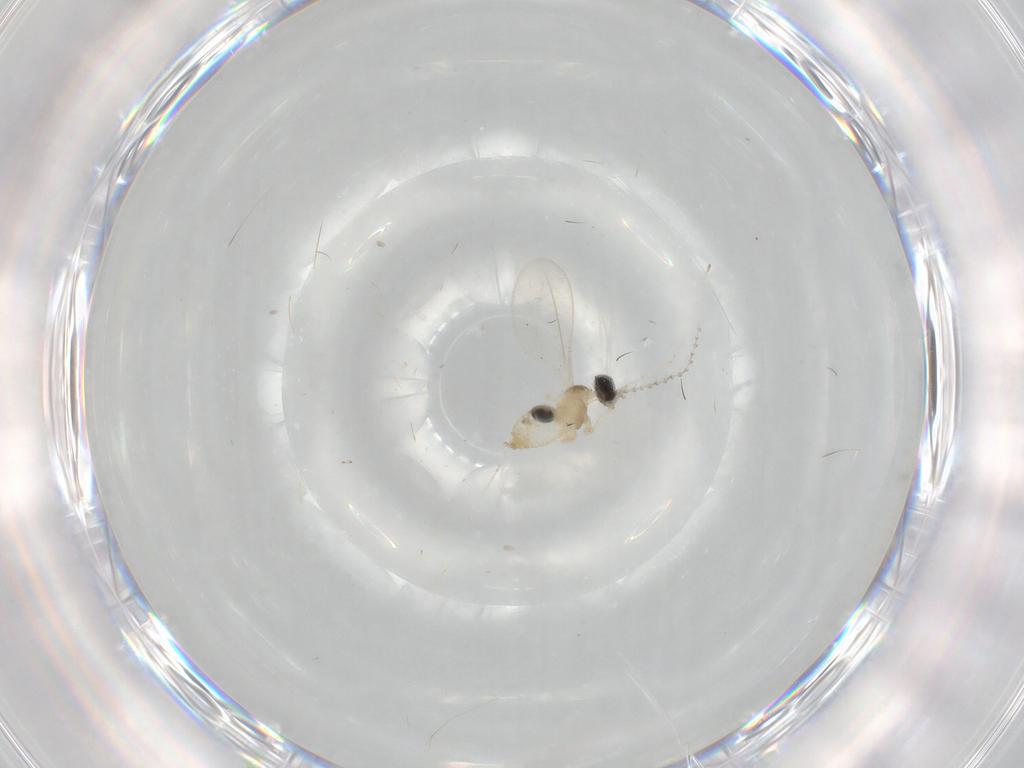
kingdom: Animalia
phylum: Arthropoda
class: Insecta
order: Diptera
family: Cecidomyiidae
